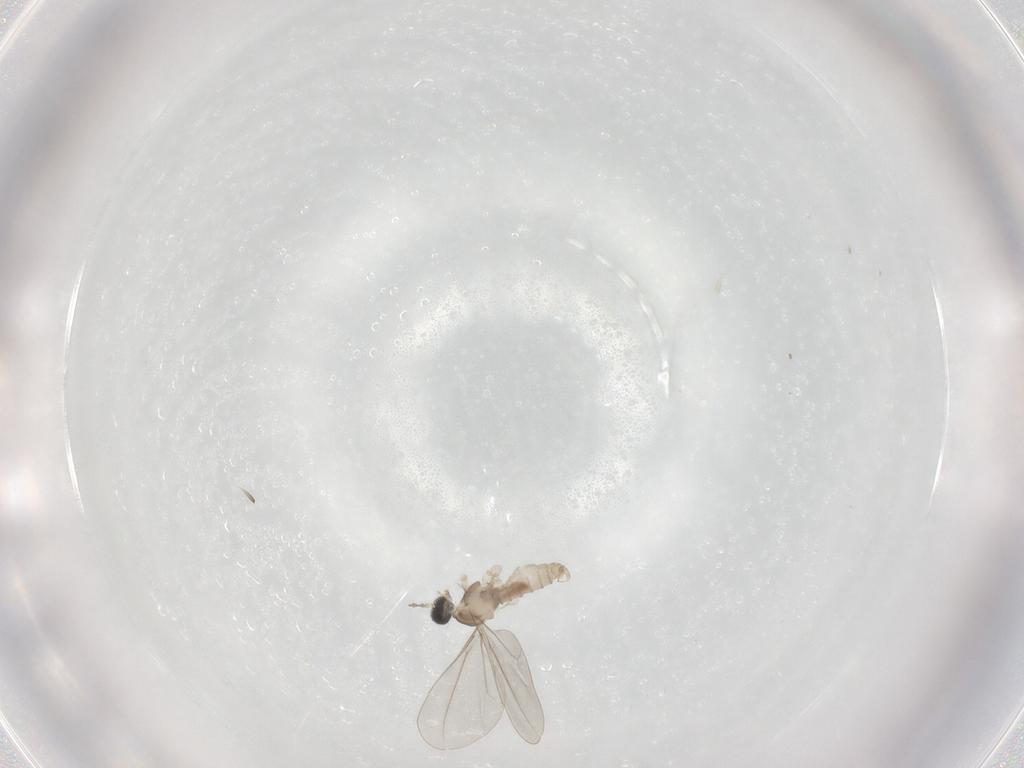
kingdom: Animalia
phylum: Arthropoda
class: Insecta
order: Diptera
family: Cecidomyiidae
